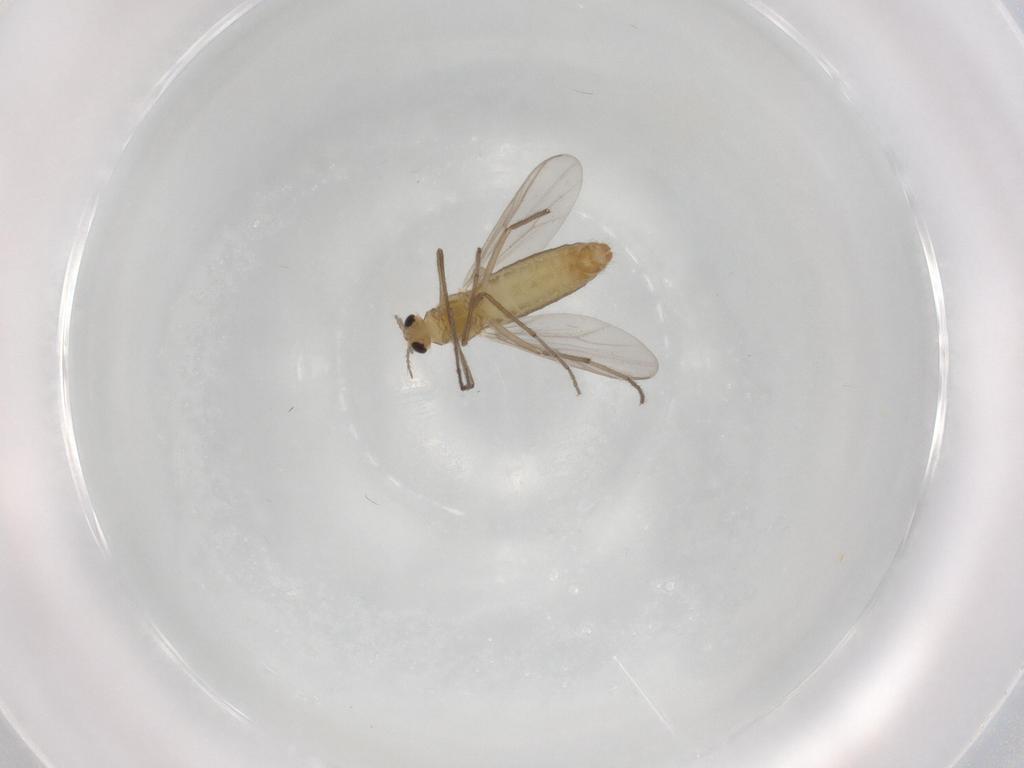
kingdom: Animalia
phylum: Arthropoda
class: Insecta
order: Diptera
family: Chironomidae
